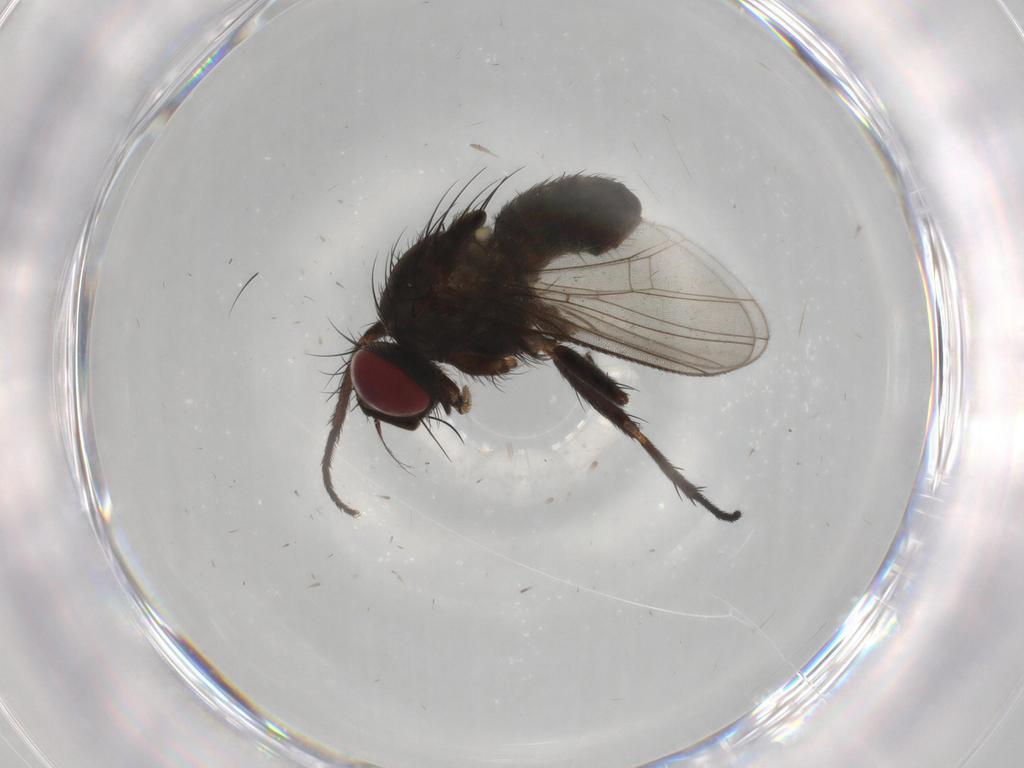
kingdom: Animalia
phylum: Arthropoda
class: Insecta
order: Diptera
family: Muscidae
